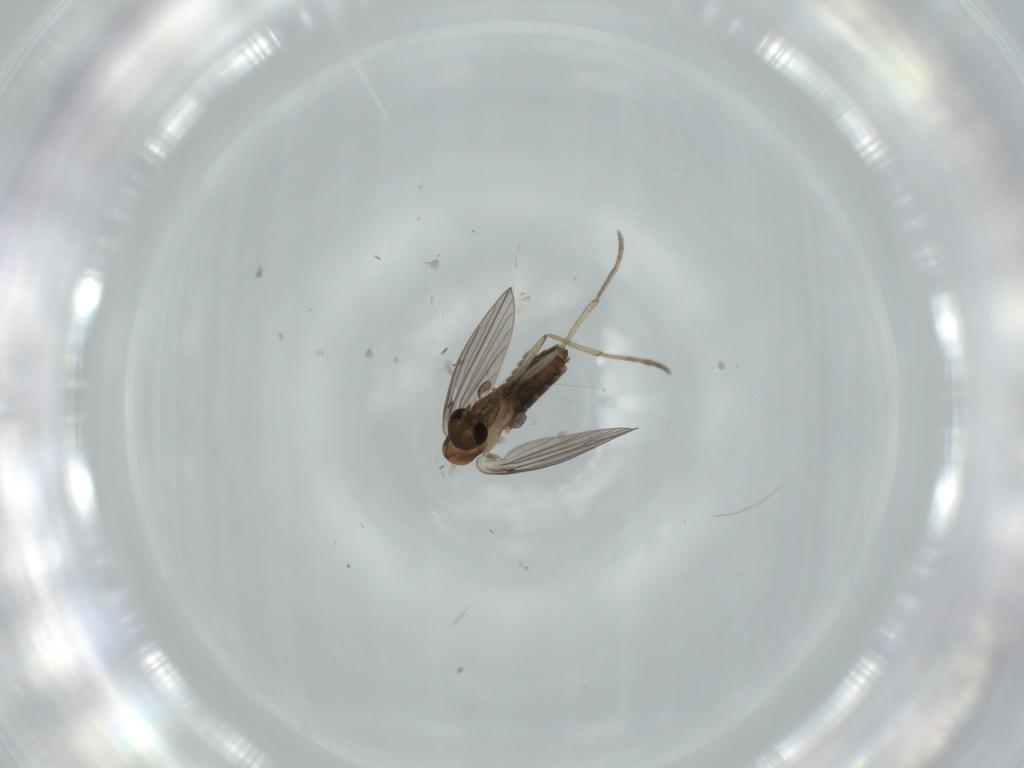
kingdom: Animalia
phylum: Arthropoda
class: Insecta
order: Diptera
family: Psychodidae
